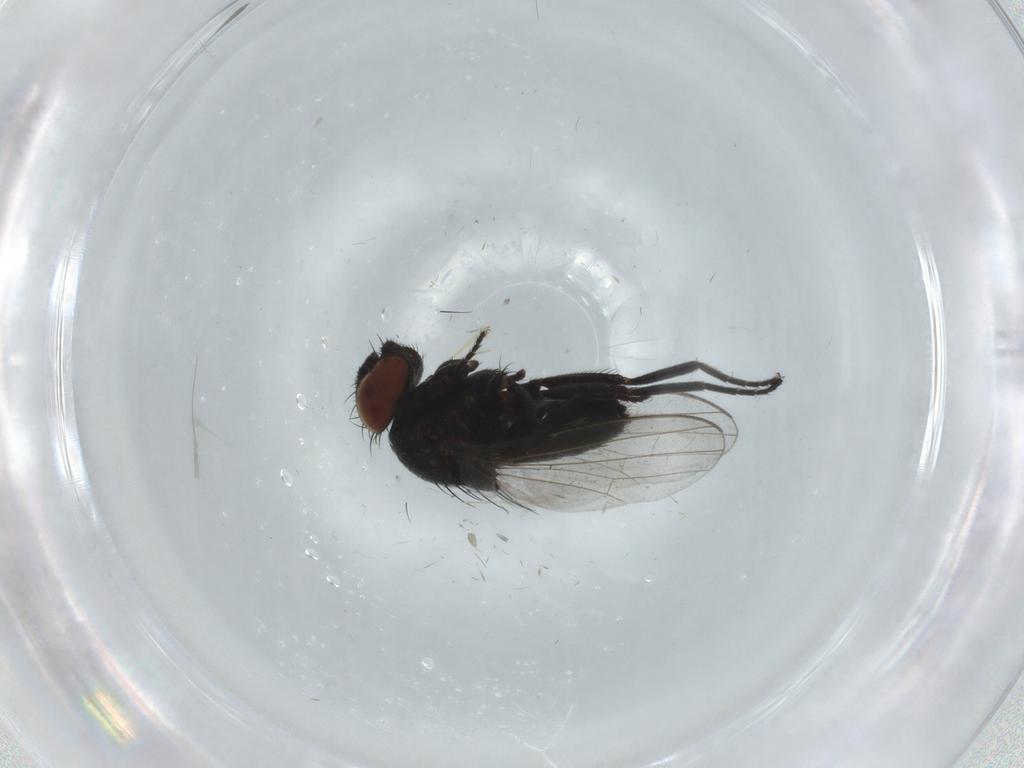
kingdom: Animalia
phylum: Arthropoda
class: Insecta
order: Diptera
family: Milichiidae
